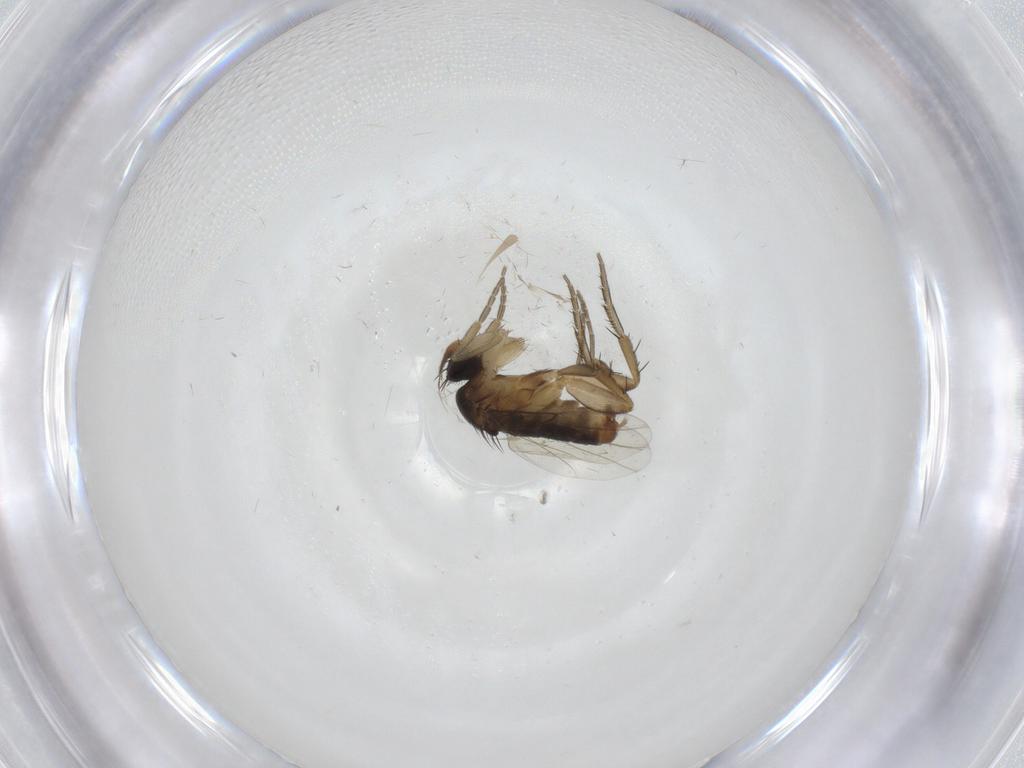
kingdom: Animalia
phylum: Arthropoda
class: Insecta
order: Diptera
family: Phoridae
